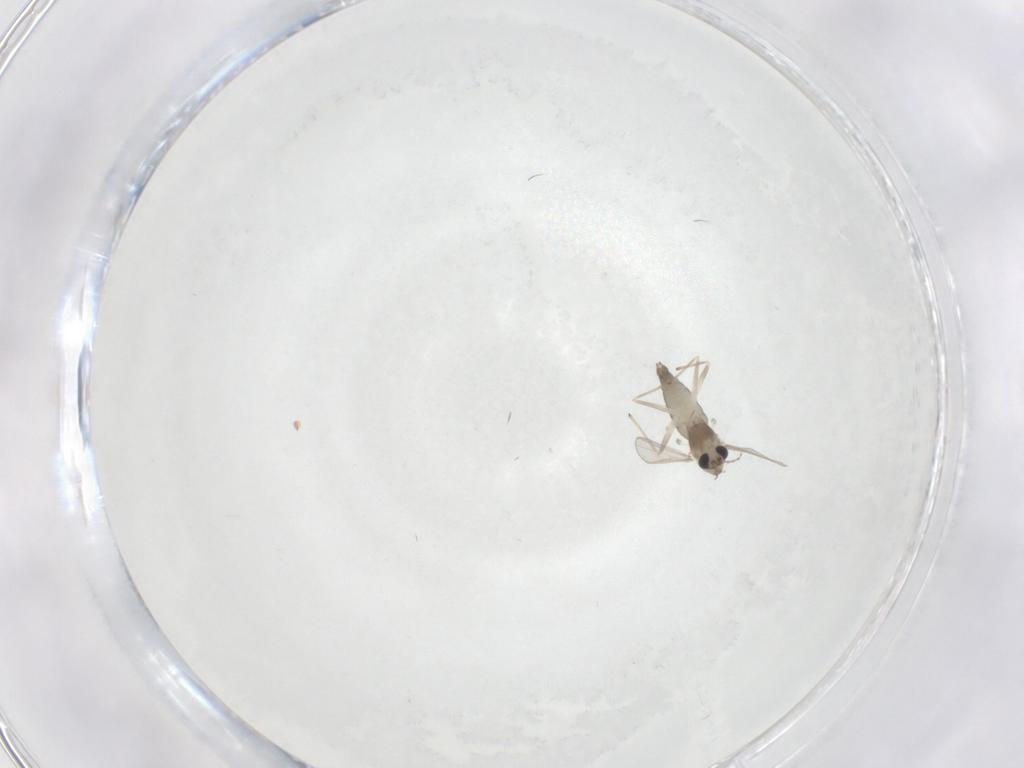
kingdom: Animalia
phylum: Arthropoda
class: Insecta
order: Diptera
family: Chironomidae
